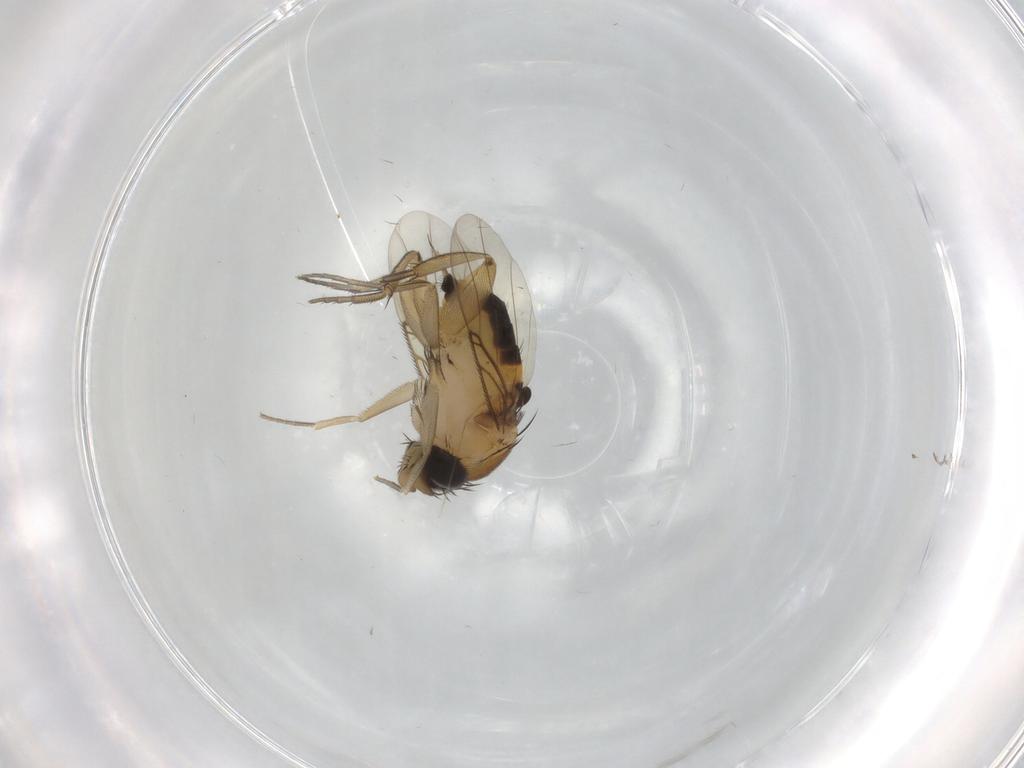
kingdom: Animalia
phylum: Arthropoda
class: Insecta
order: Diptera
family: Phoridae
